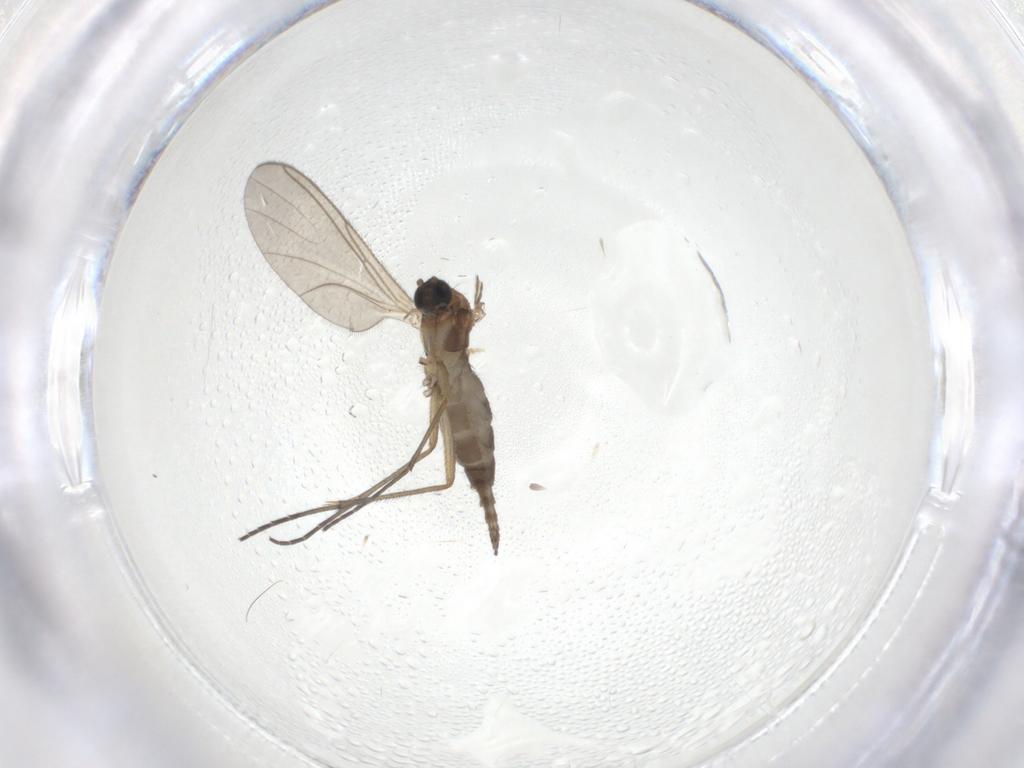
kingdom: Animalia
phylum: Arthropoda
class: Insecta
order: Diptera
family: Sciaridae
